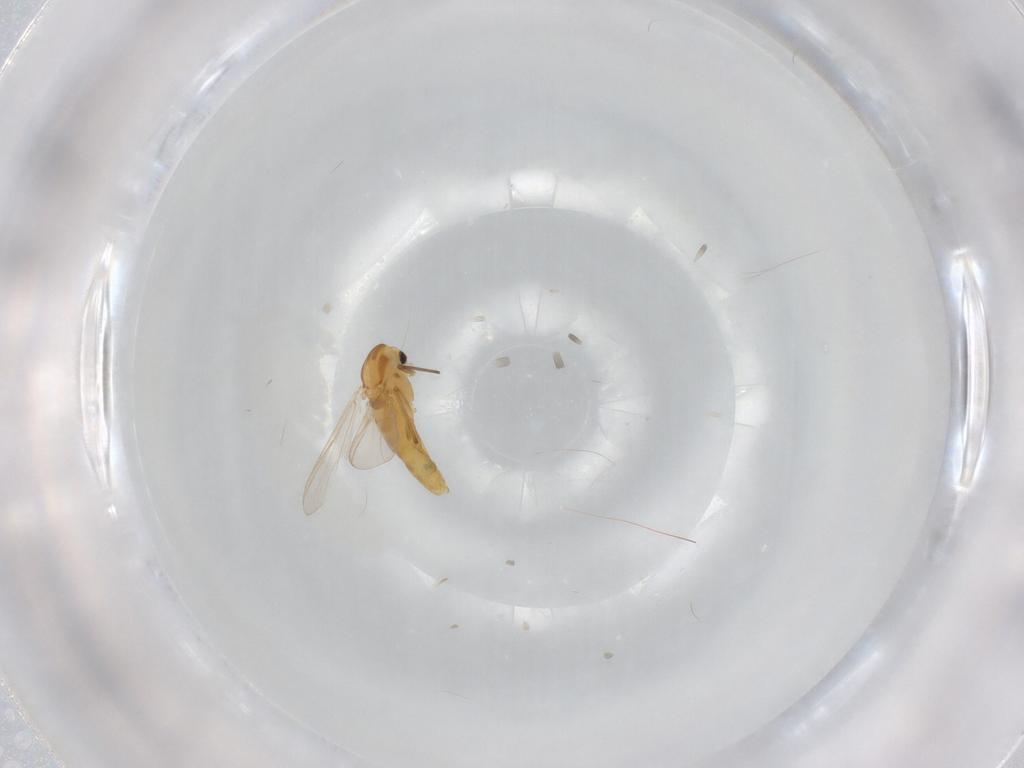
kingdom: Animalia
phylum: Arthropoda
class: Insecta
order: Diptera
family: Chironomidae
